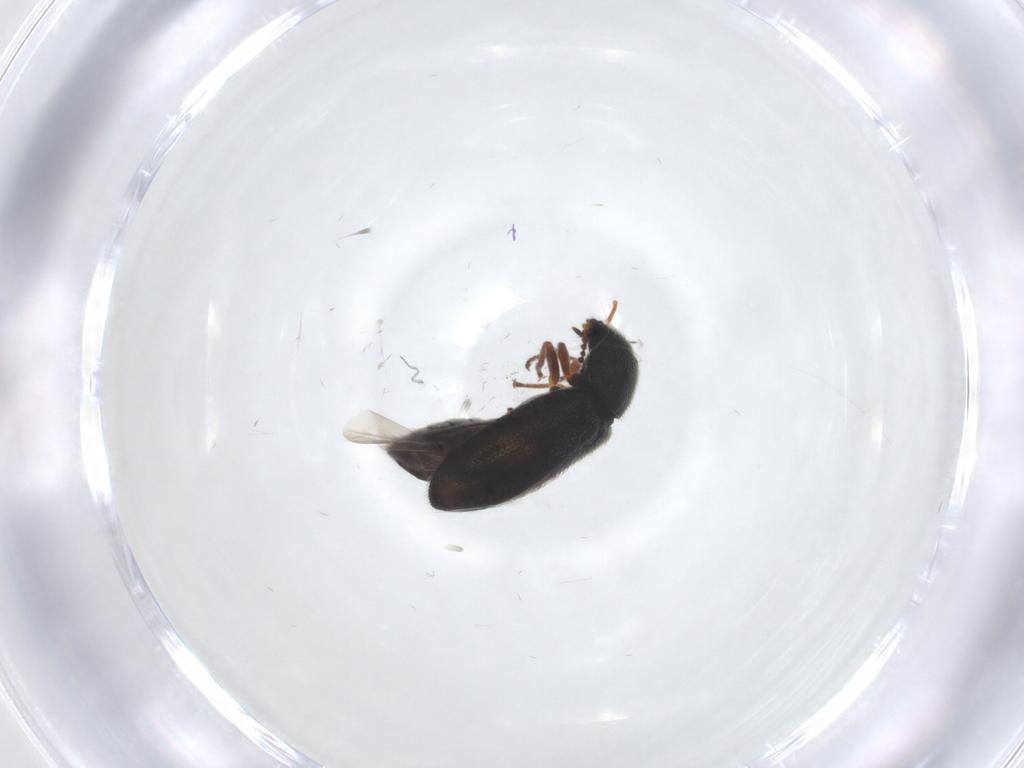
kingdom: Animalia
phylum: Arthropoda
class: Insecta
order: Coleoptera
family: Melyridae
